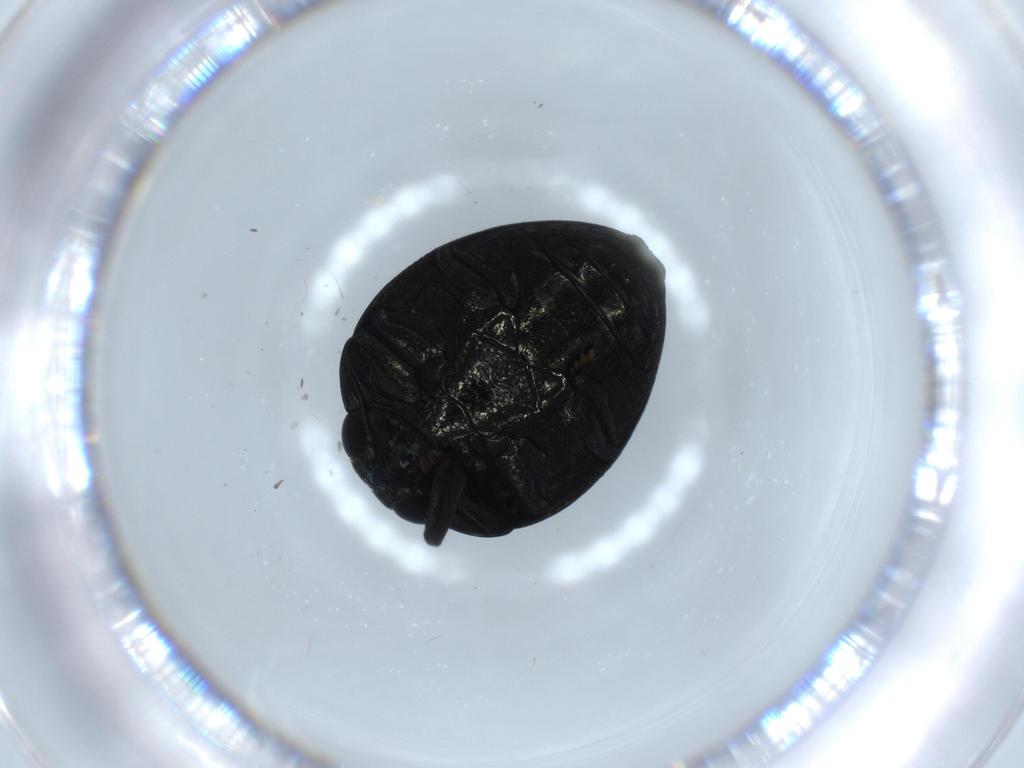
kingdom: Animalia
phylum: Arthropoda
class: Insecta
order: Coleoptera
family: Buprestidae
